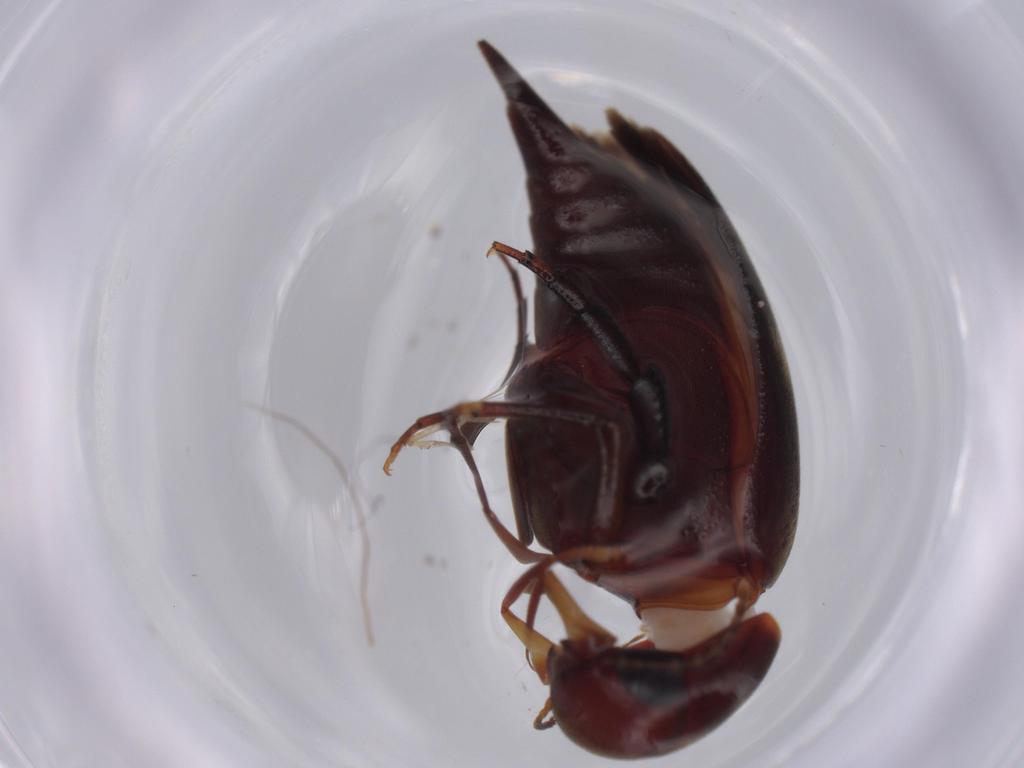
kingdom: Animalia
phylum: Arthropoda
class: Insecta
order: Coleoptera
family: Mordellidae
